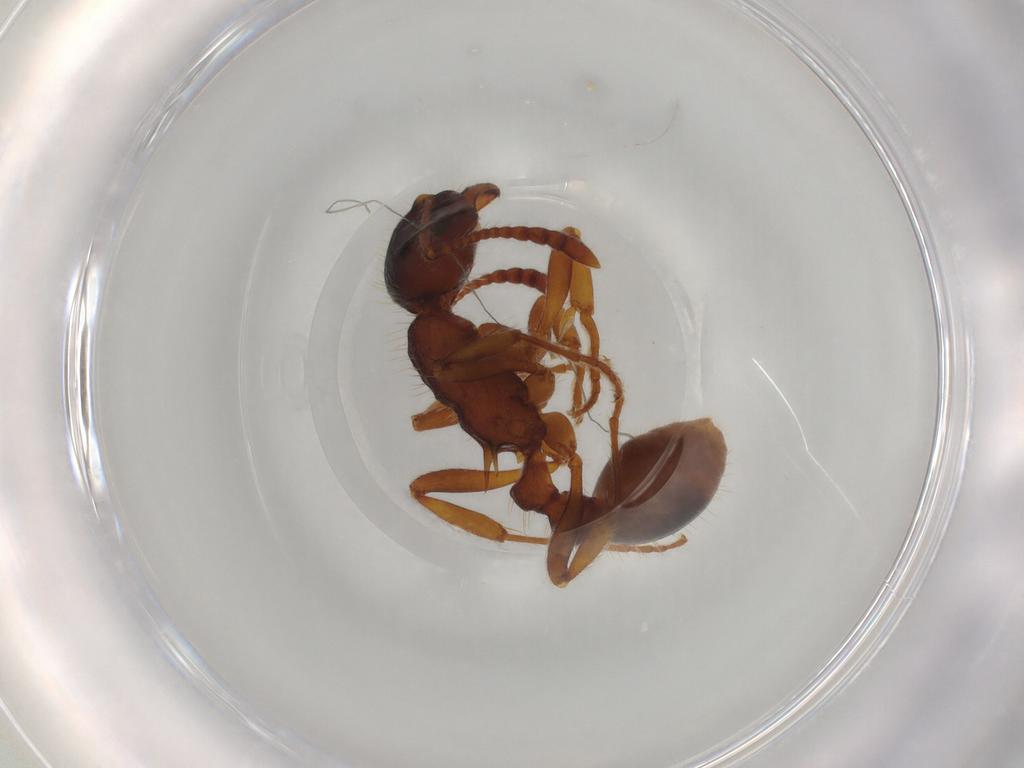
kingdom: Animalia
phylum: Arthropoda
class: Insecta
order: Hymenoptera
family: Formicidae
